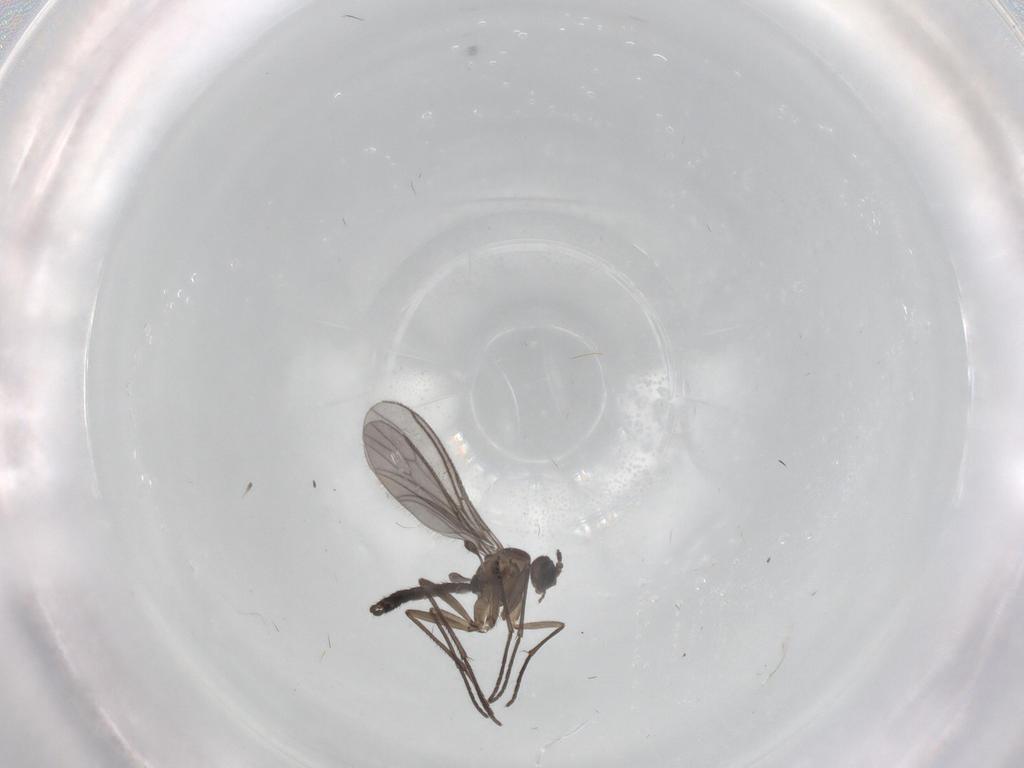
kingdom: Animalia
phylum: Arthropoda
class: Insecta
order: Diptera
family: Sciaridae
